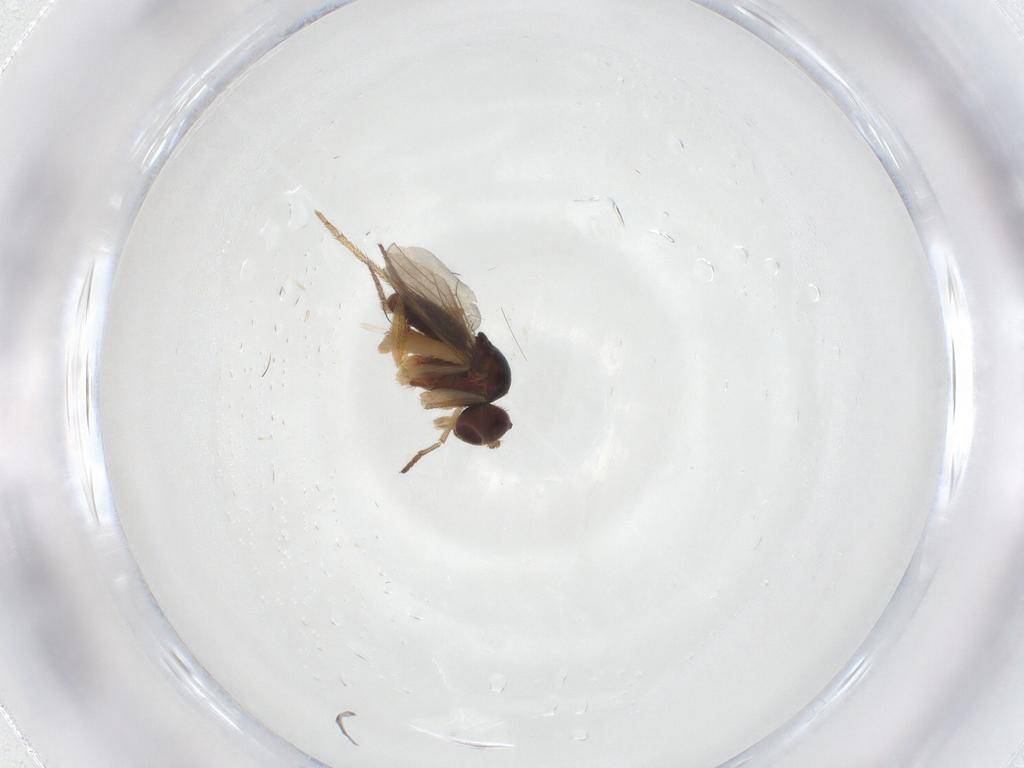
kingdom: Animalia
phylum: Arthropoda
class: Insecta
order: Diptera
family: Dolichopodidae
